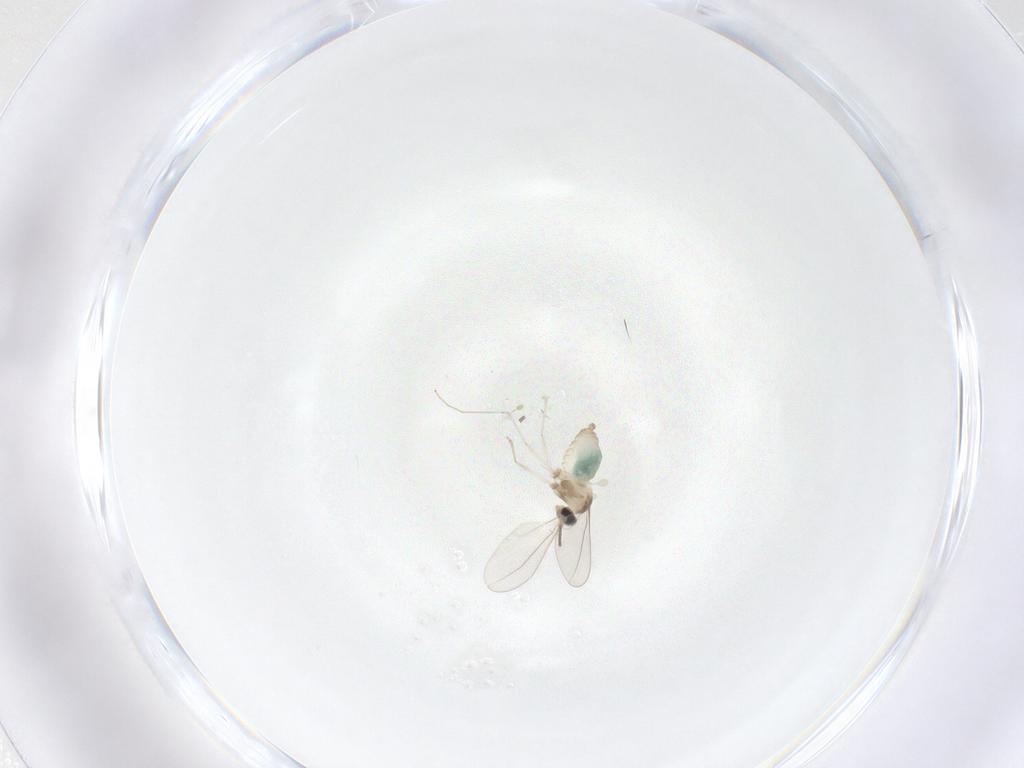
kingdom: Animalia
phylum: Arthropoda
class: Insecta
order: Diptera
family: Cecidomyiidae
